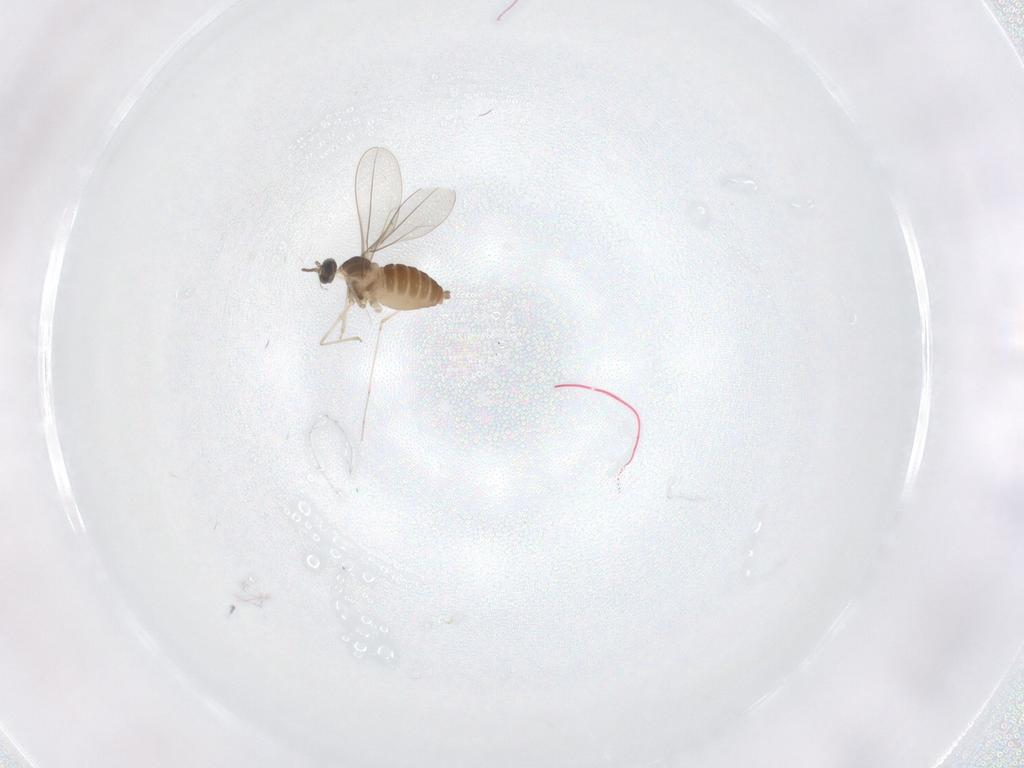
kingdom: Animalia
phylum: Arthropoda
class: Insecta
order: Diptera
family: Cecidomyiidae
